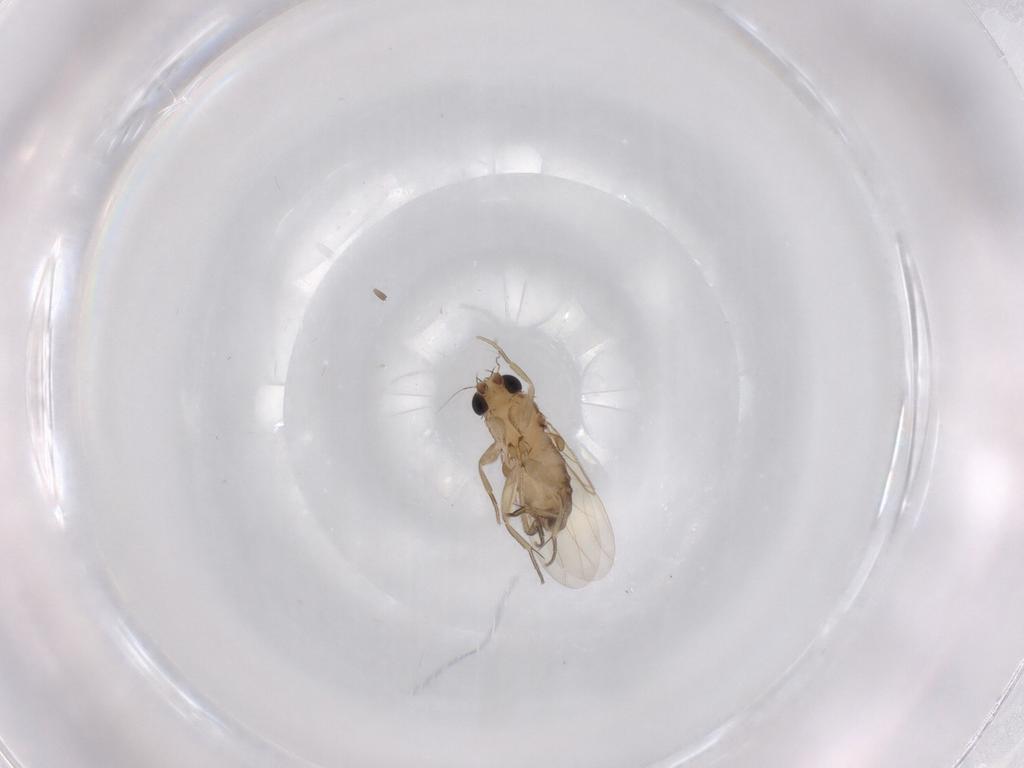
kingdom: Animalia
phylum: Arthropoda
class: Insecta
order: Diptera
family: Phoridae
